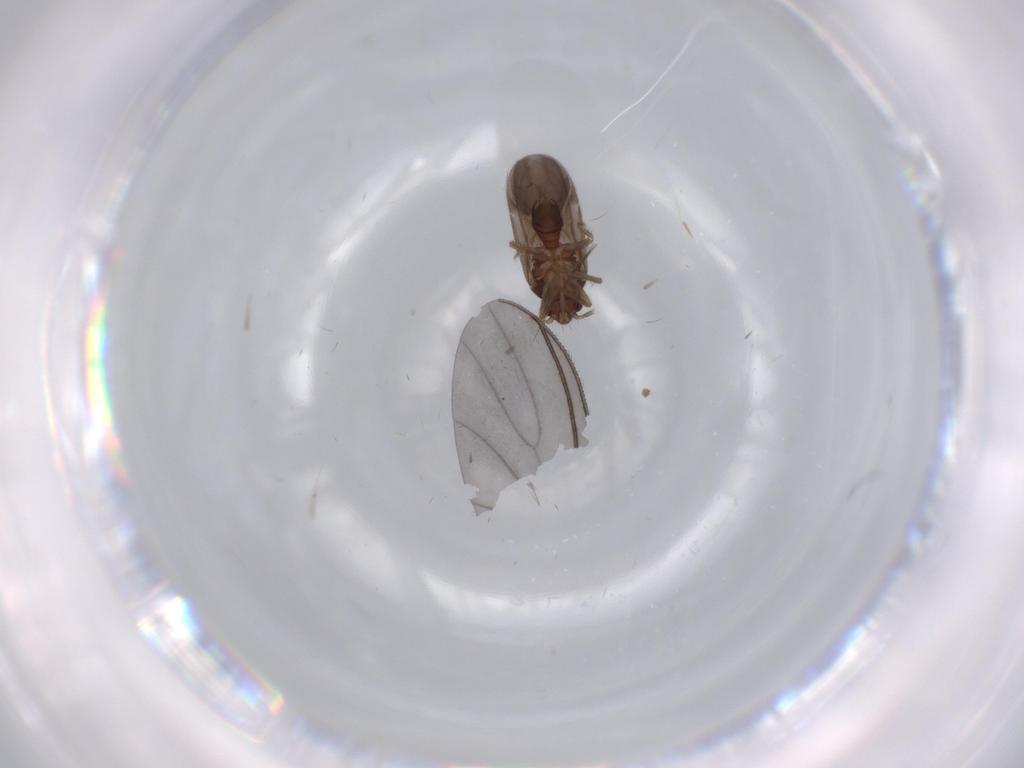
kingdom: Animalia
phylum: Arthropoda
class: Insecta
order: Hemiptera
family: Ceratocombidae
